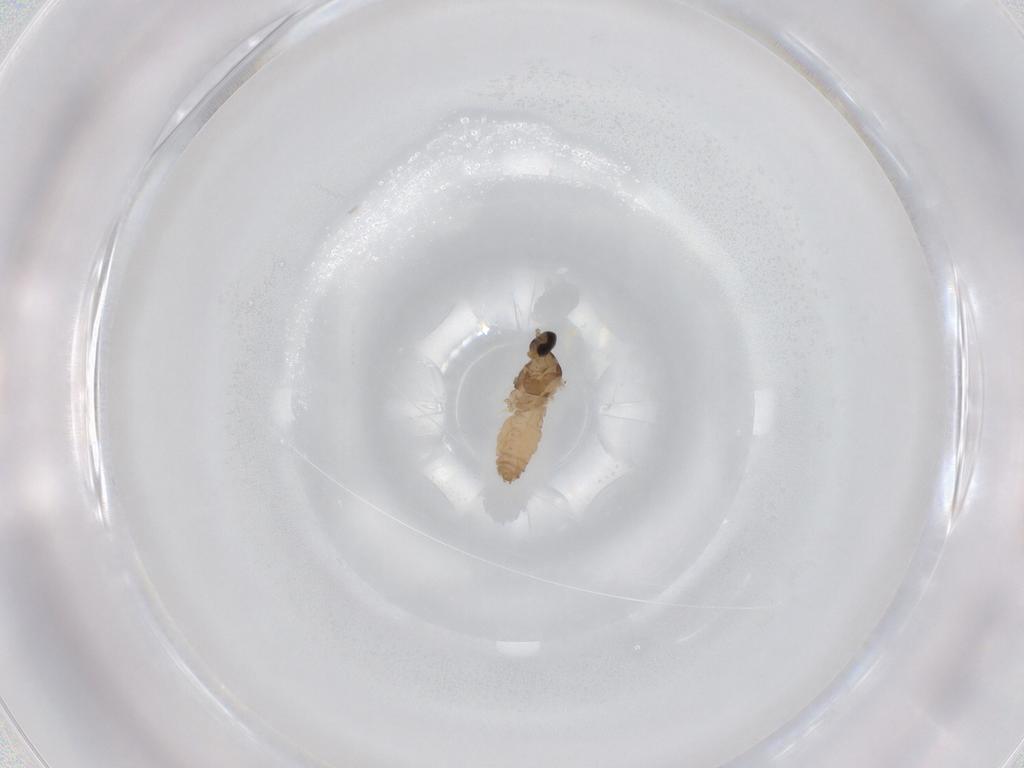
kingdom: Animalia
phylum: Arthropoda
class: Insecta
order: Diptera
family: Cecidomyiidae
